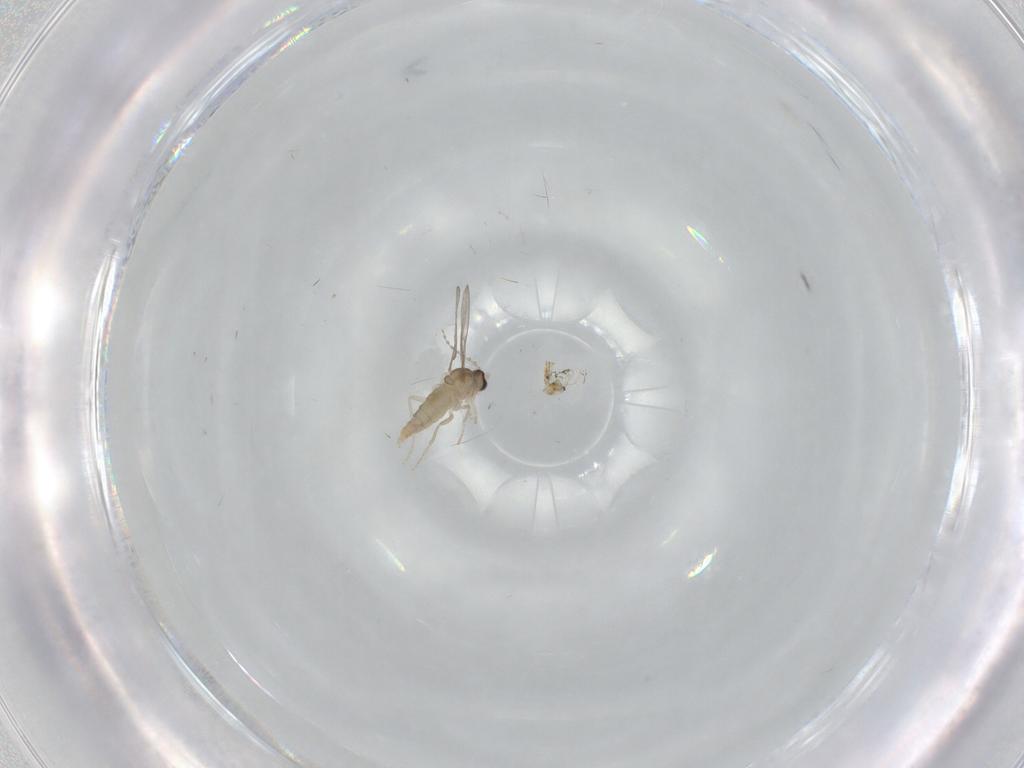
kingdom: Animalia
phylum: Arthropoda
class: Insecta
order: Diptera
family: Cecidomyiidae
